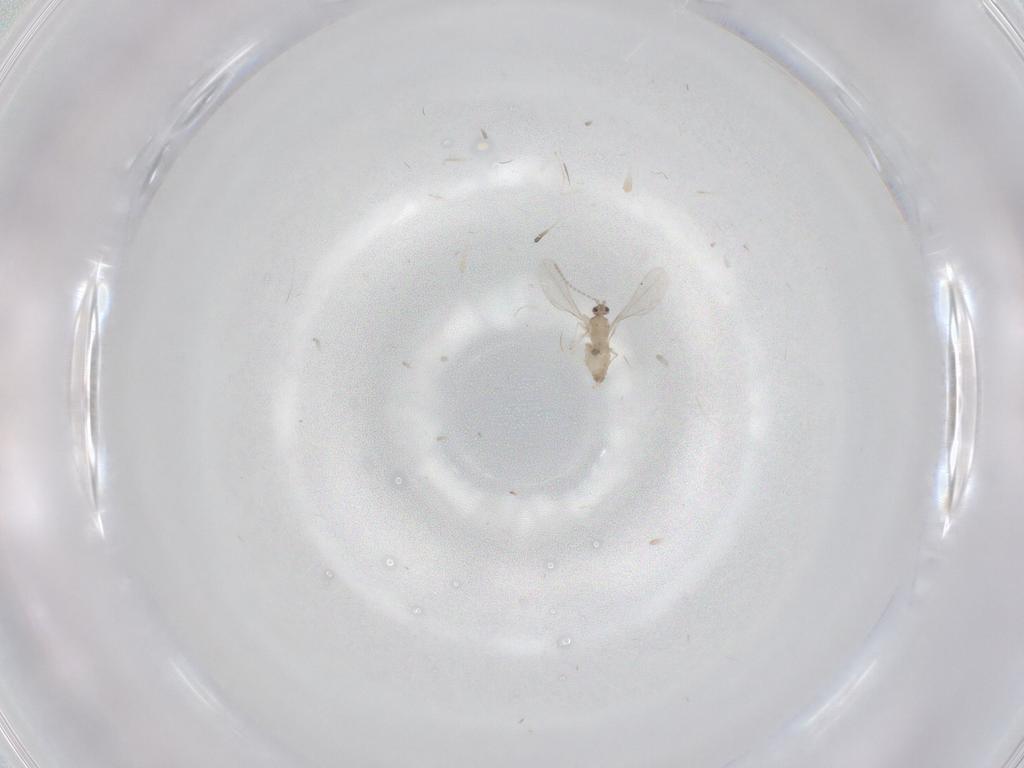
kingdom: Animalia
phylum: Arthropoda
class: Insecta
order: Diptera
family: Cecidomyiidae
